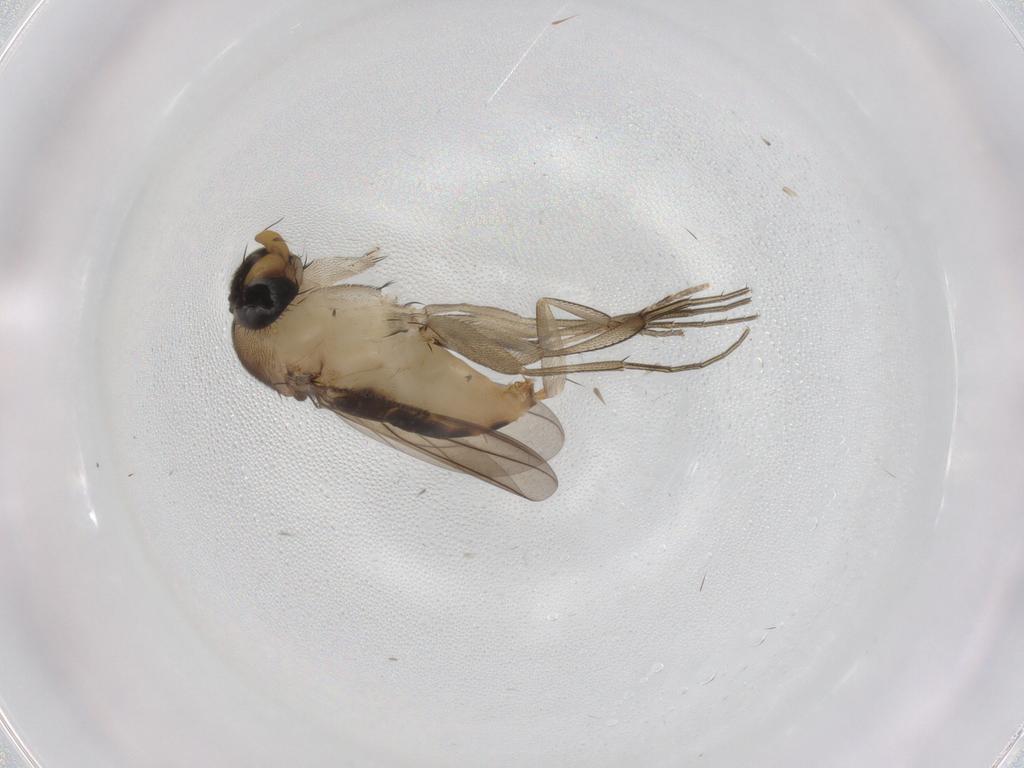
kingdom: Animalia
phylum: Arthropoda
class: Insecta
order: Diptera
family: Phoridae
